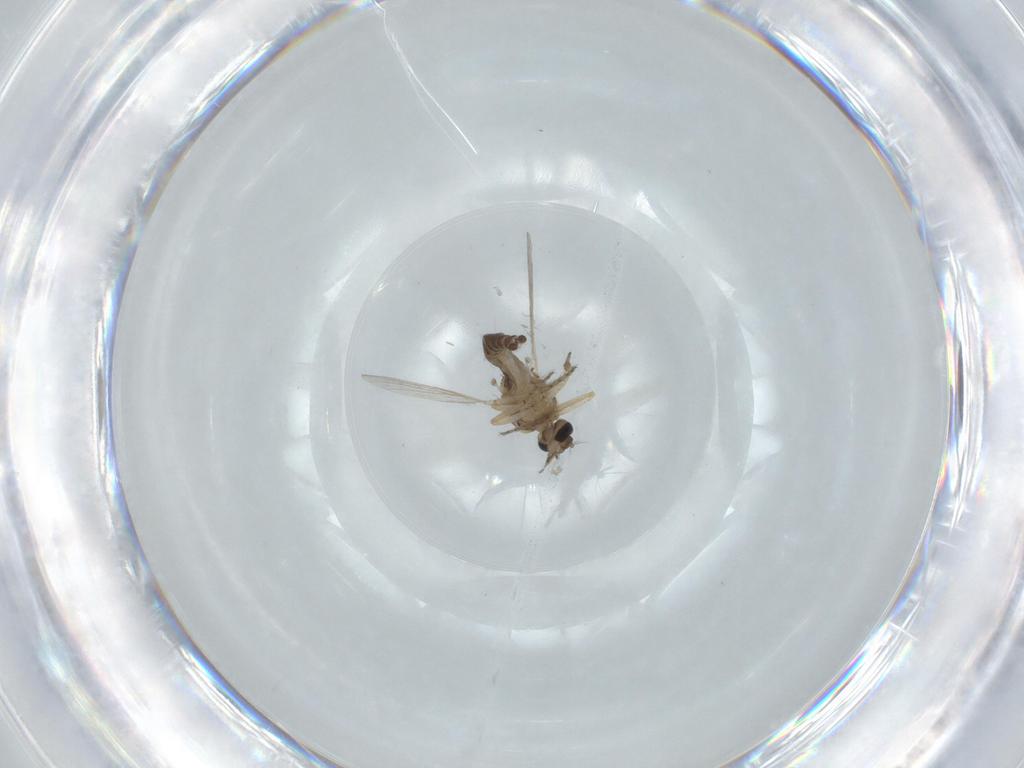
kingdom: Animalia
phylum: Arthropoda
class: Insecta
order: Diptera
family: Ceratopogonidae
